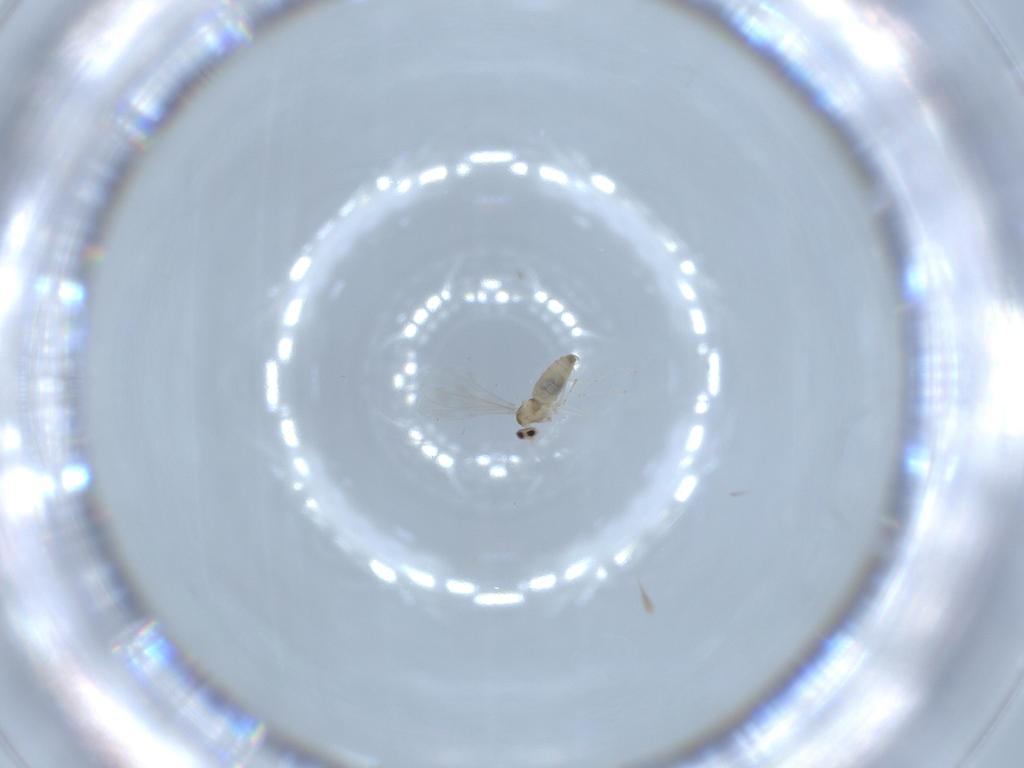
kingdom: Animalia
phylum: Arthropoda
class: Insecta
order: Diptera
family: Cecidomyiidae
